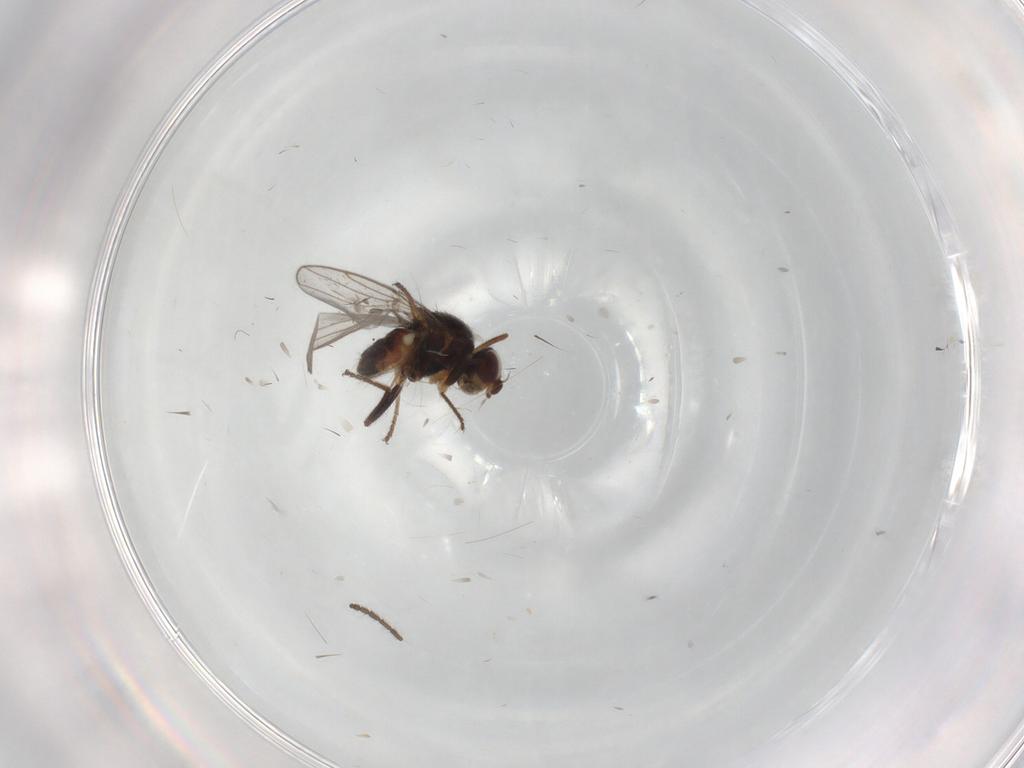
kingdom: Animalia
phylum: Arthropoda
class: Insecta
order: Diptera
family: Chloropidae
